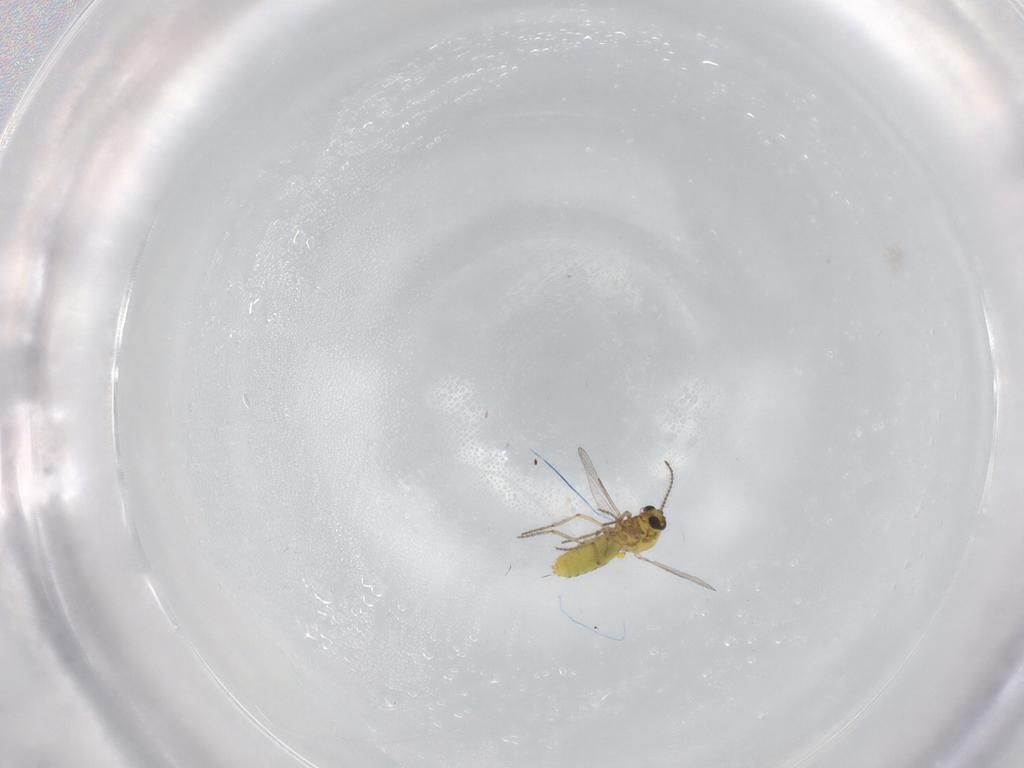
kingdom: Animalia
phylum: Arthropoda
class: Insecta
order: Diptera
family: Ceratopogonidae
